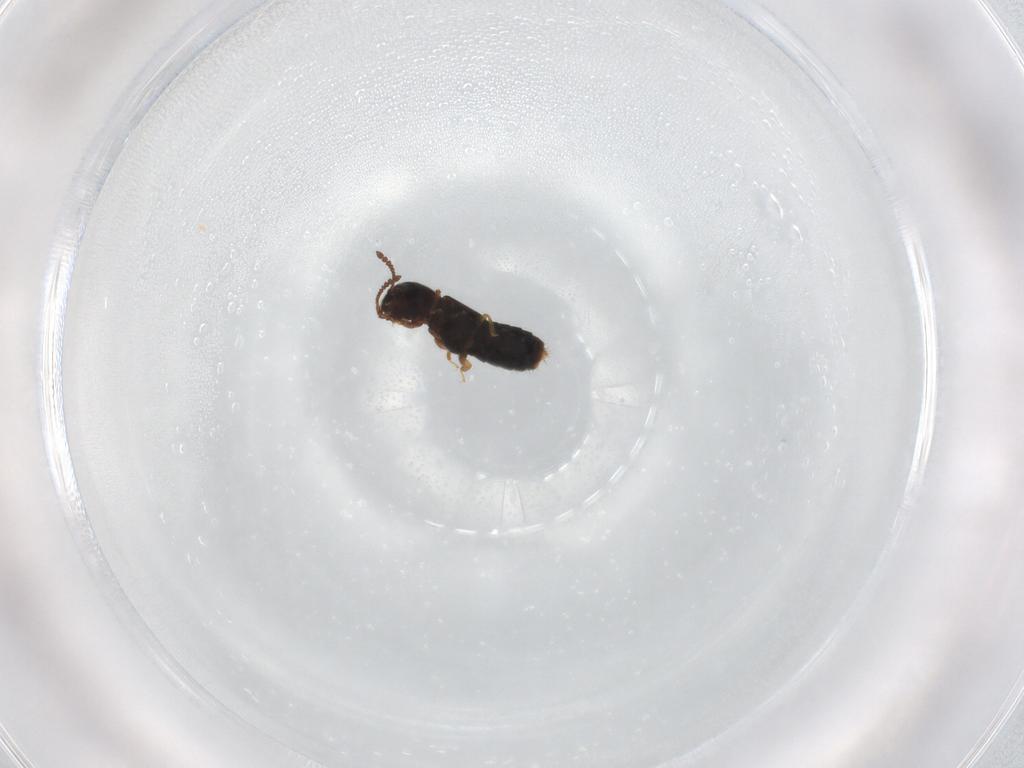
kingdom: Animalia
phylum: Arthropoda
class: Insecta
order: Coleoptera
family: Staphylinidae
